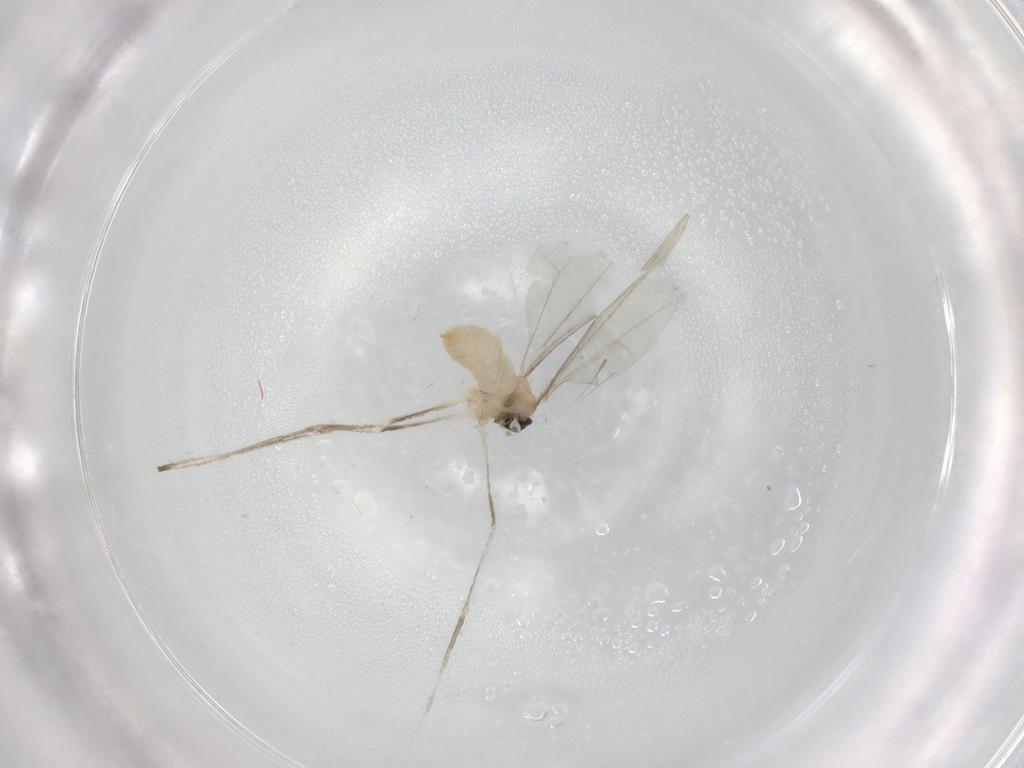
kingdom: Animalia
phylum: Arthropoda
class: Insecta
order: Diptera
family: Cecidomyiidae
